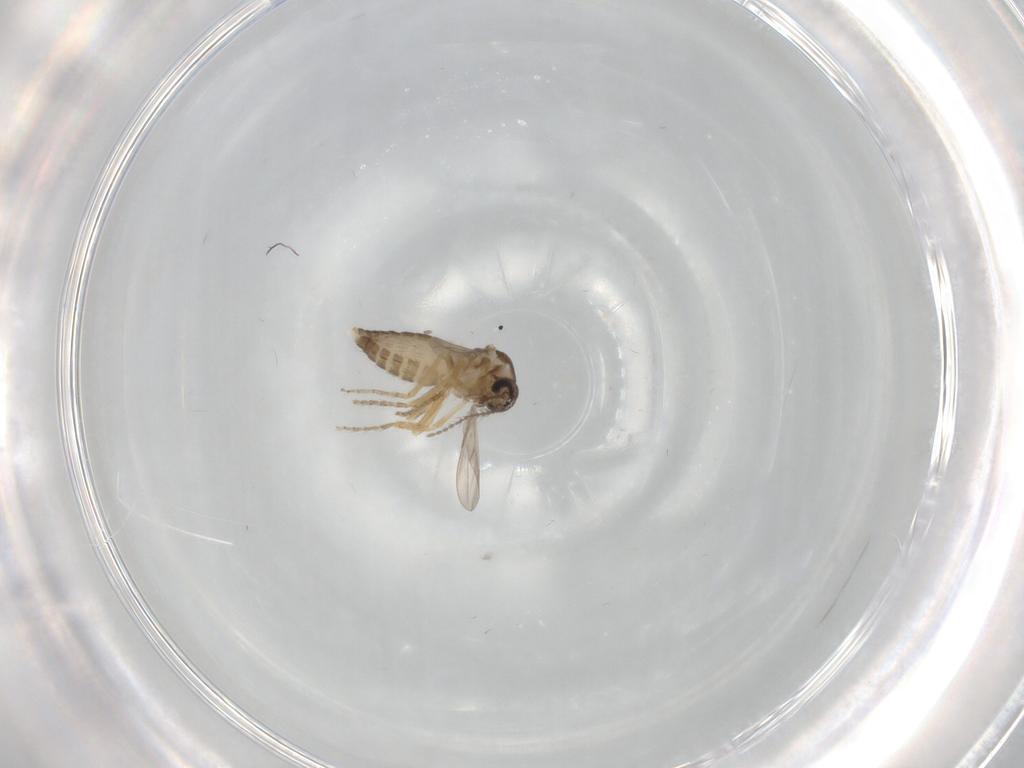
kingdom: Animalia
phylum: Arthropoda
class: Insecta
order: Diptera
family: Ceratopogonidae
